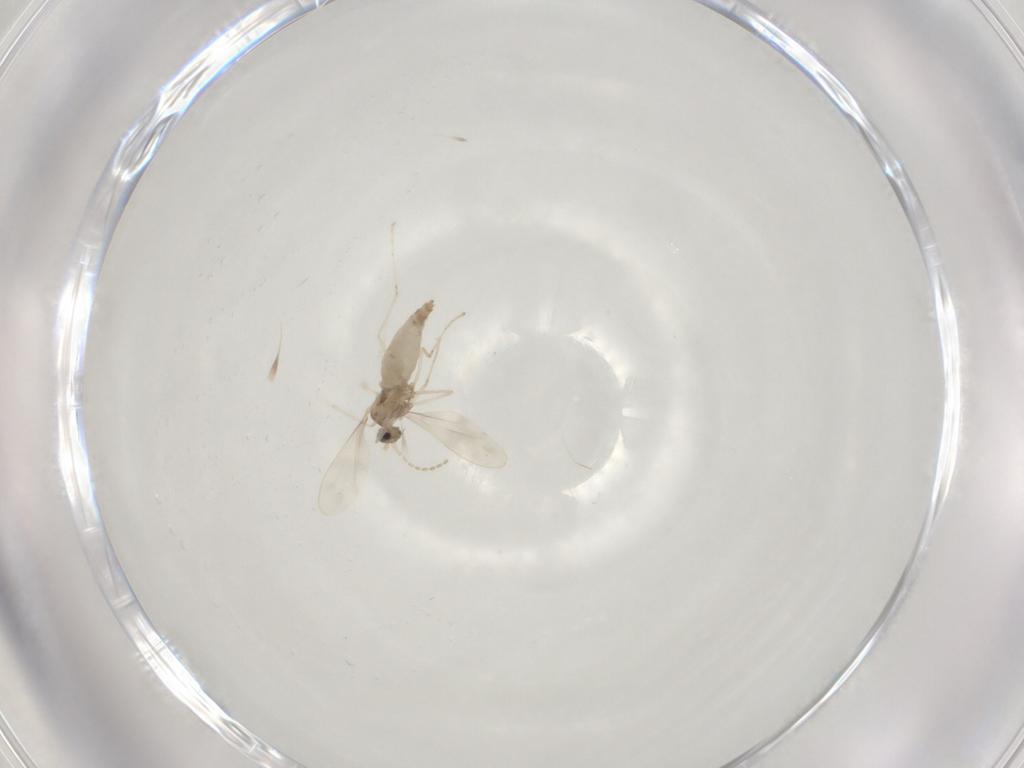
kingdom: Animalia
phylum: Arthropoda
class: Insecta
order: Diptera
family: Cecidomyiidae
